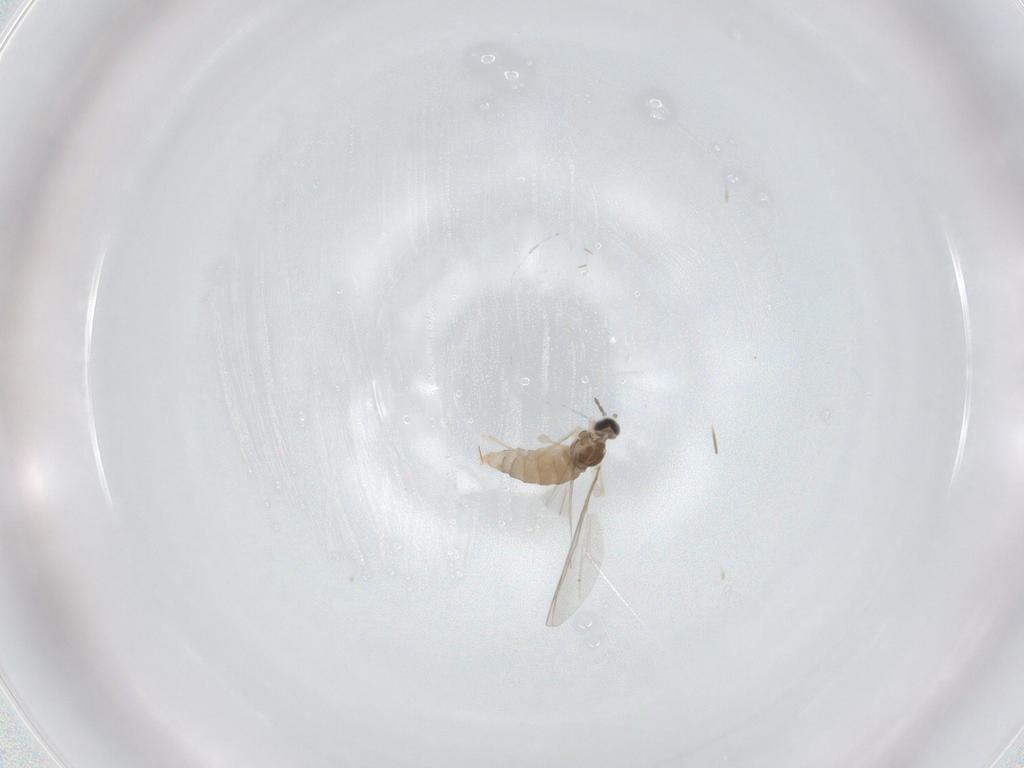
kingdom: Animalia
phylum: Arthropoda
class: Insecta
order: Diptera
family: Cecidomyiidae
